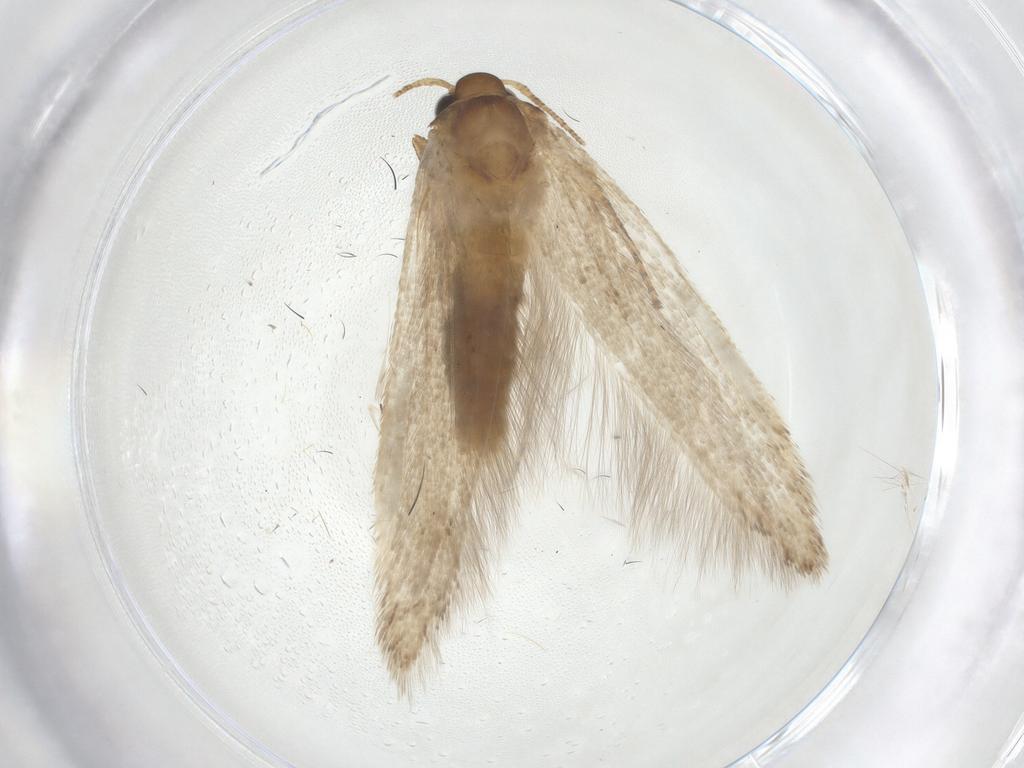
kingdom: Animalia
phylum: Arthropoda
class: Insecta
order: Lepidoptera
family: Blastobasidae
